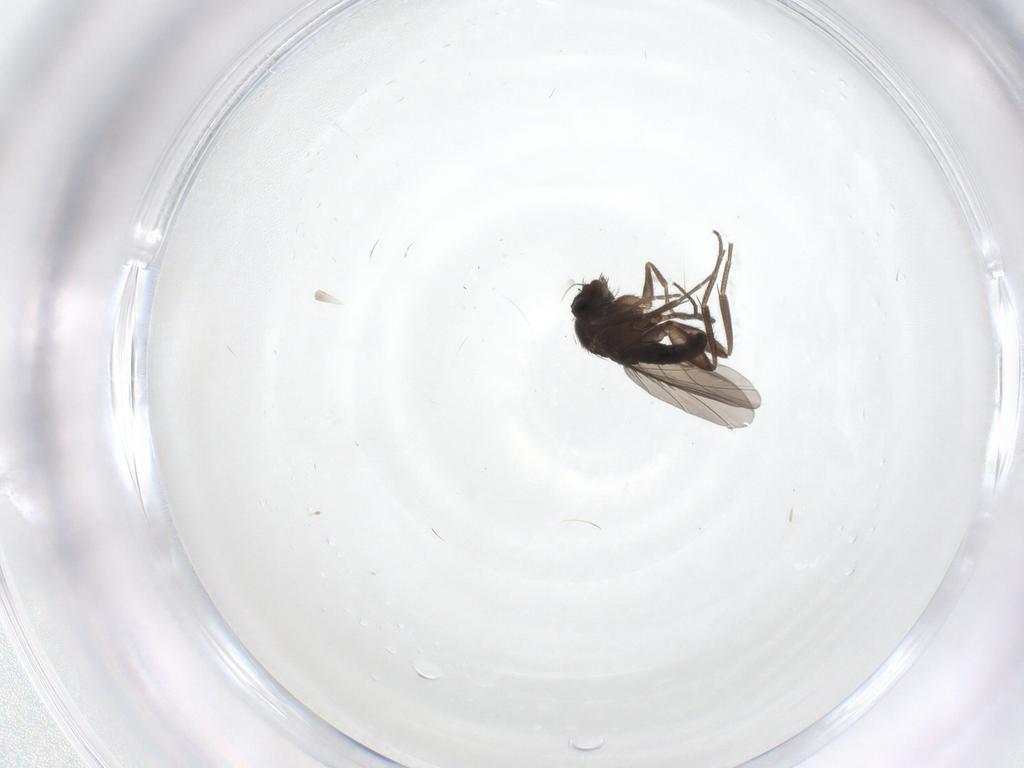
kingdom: Animalia
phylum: Arthropoda
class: Insecta
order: Diptera
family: Phoridae
